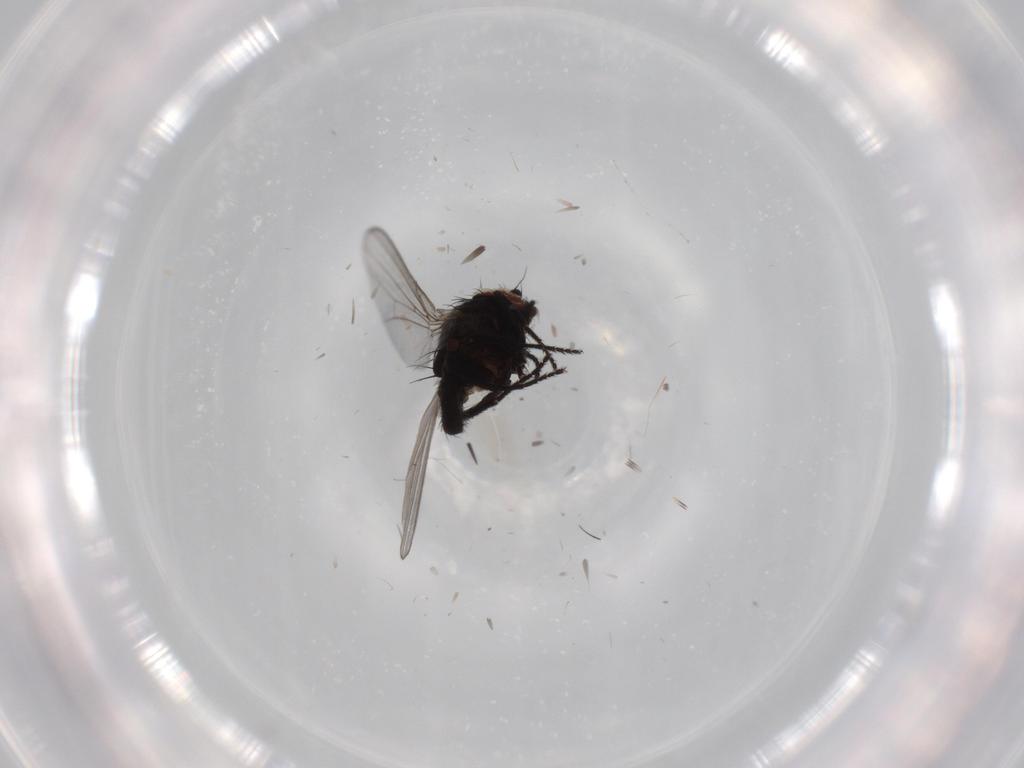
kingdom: Animalia
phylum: Arthropoda
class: Insecta
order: Diptera
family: Milichiidae
